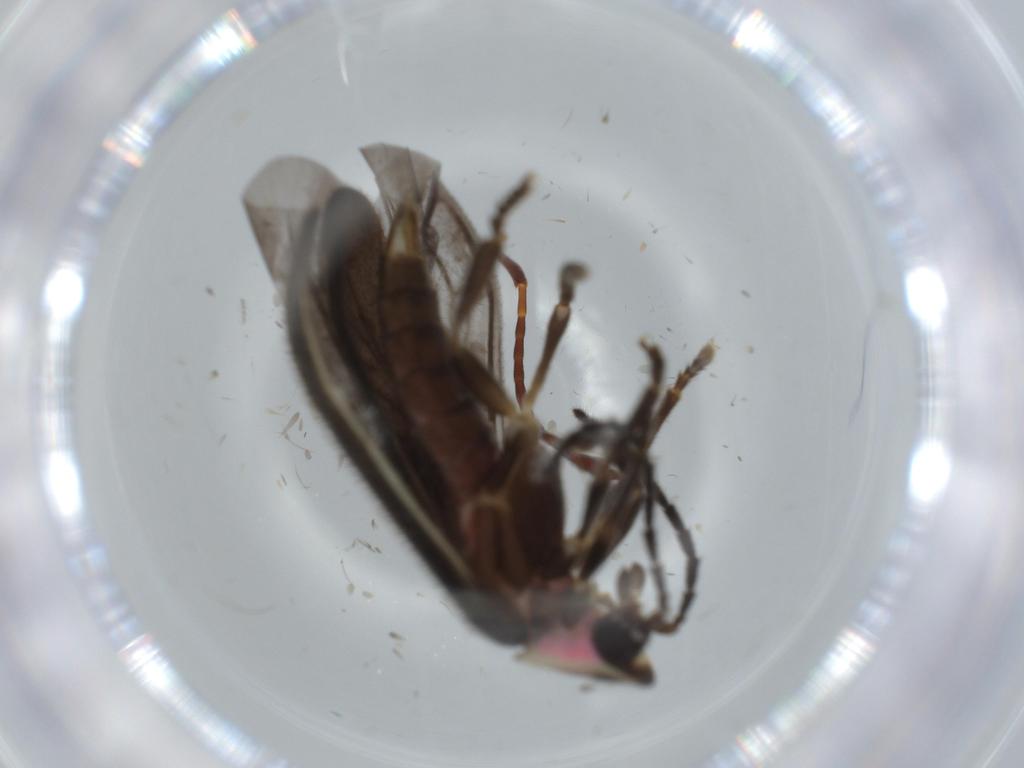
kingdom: Animalia
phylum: Arthropoda
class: Insecta
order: Coleoptera
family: Lampyridae
